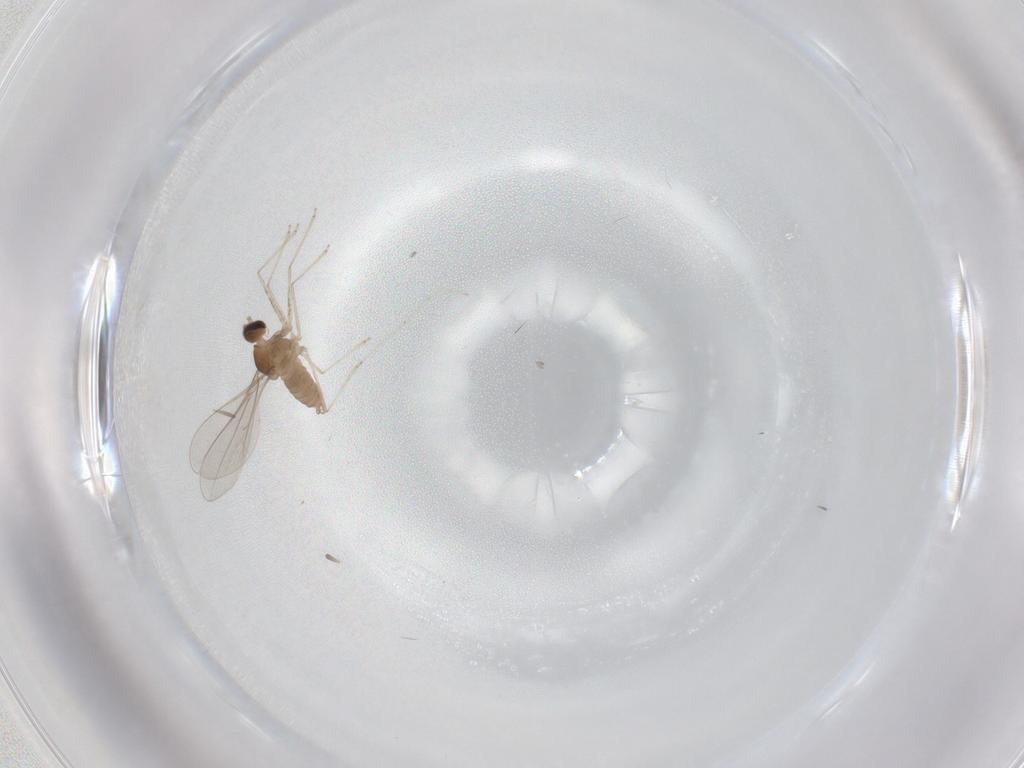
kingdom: Animalia
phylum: Arthropoda
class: Insecta
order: Diptera
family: Cecidomyiidae
